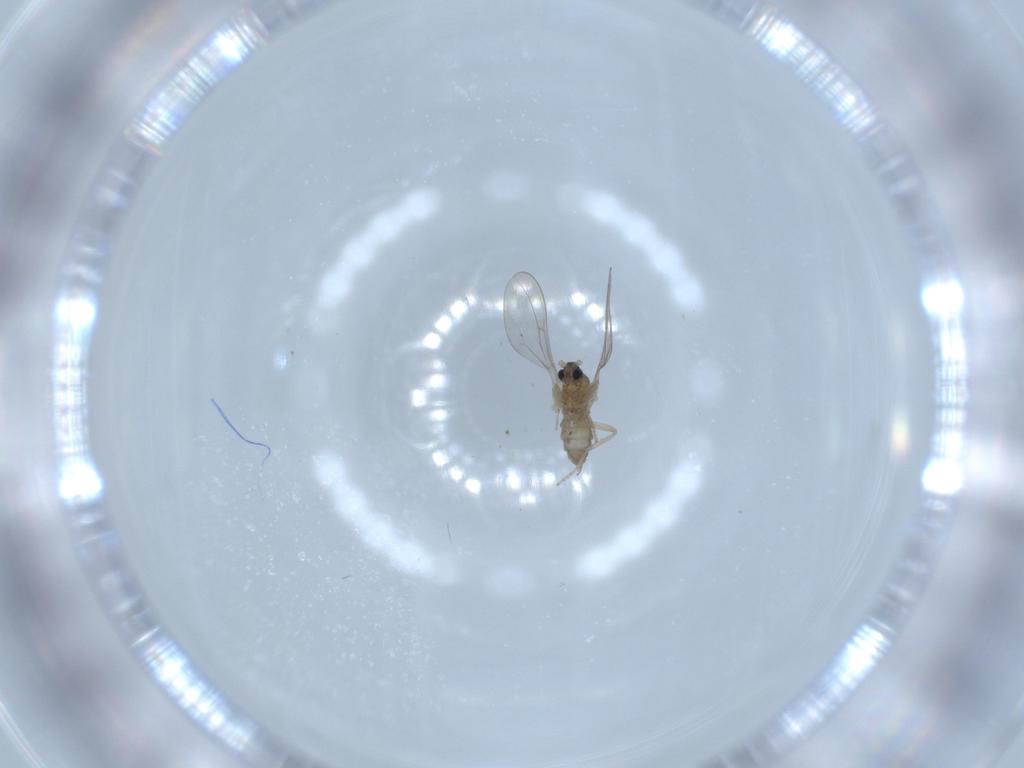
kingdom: Animalia
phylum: Arthropoda
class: Insecta
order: Diptera
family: Cecidomyiidae
